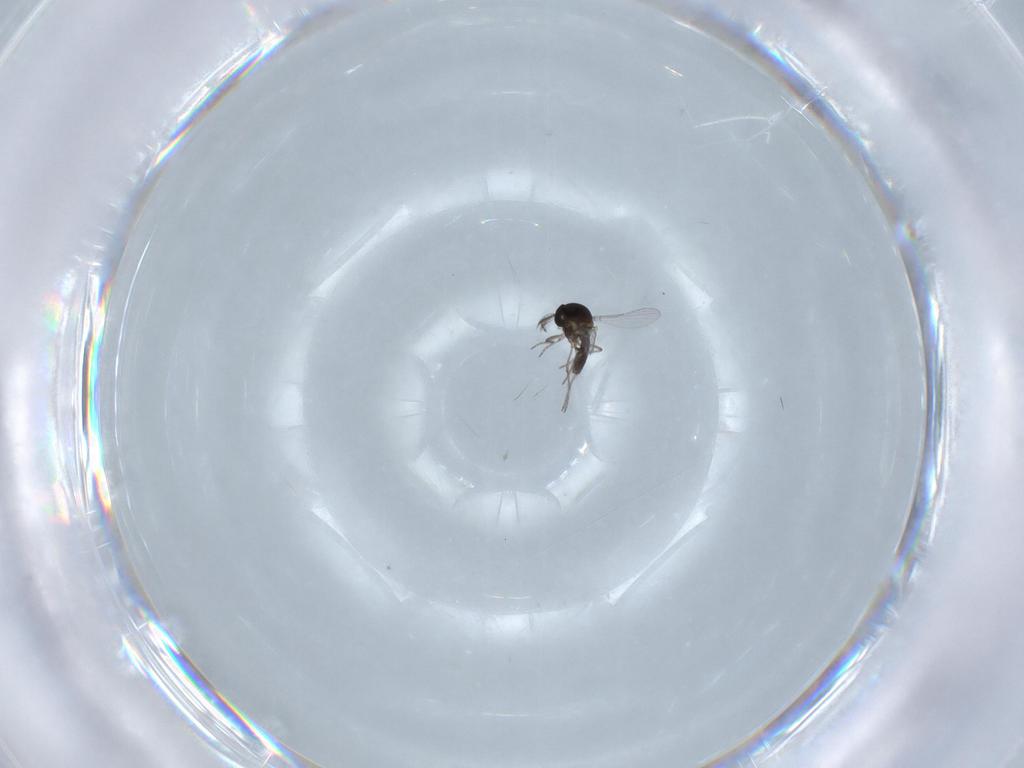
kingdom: Animalia
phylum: Arthropoda
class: Insecta
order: Diptera
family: Ceratopogonidae
